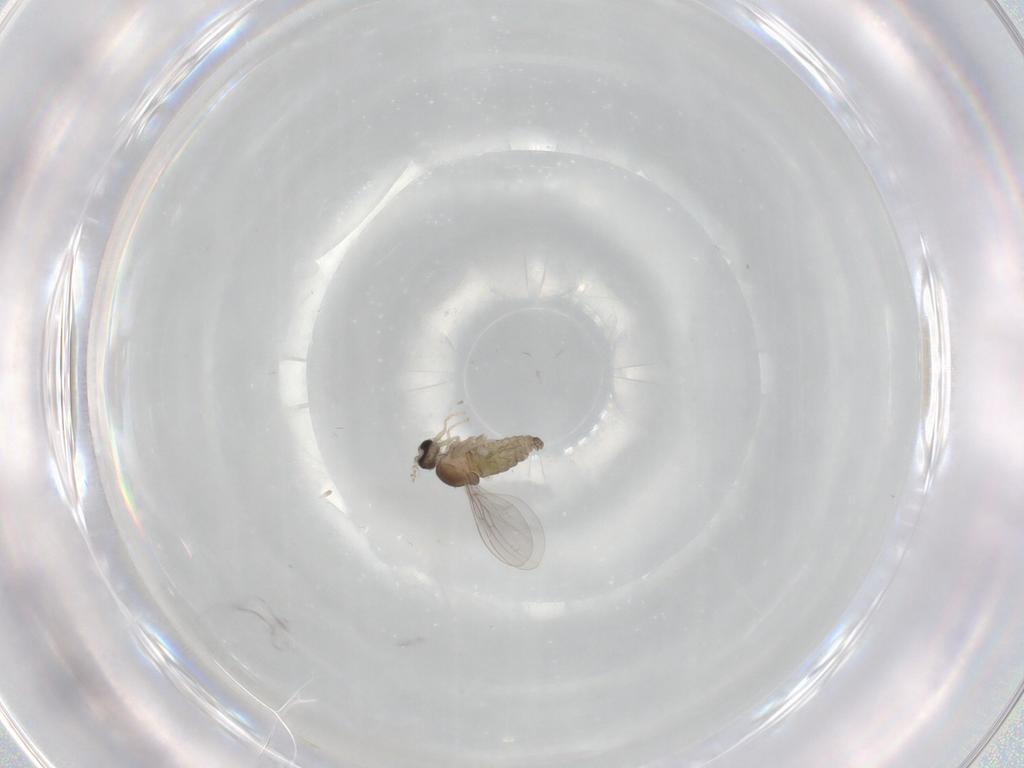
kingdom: Animalia
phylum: Arthropoda
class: Insecta
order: Diptera
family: Cecidomyiidae
